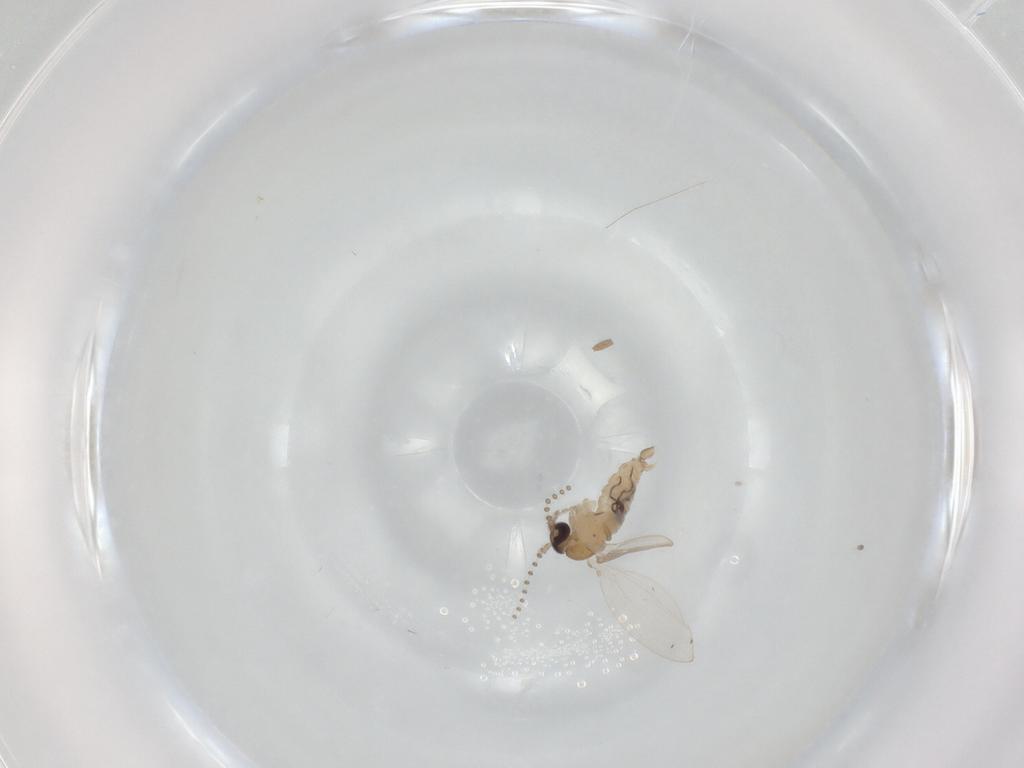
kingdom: Animalia
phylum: Arthropoda
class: Insecta
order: Diptera
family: Psychodidae
